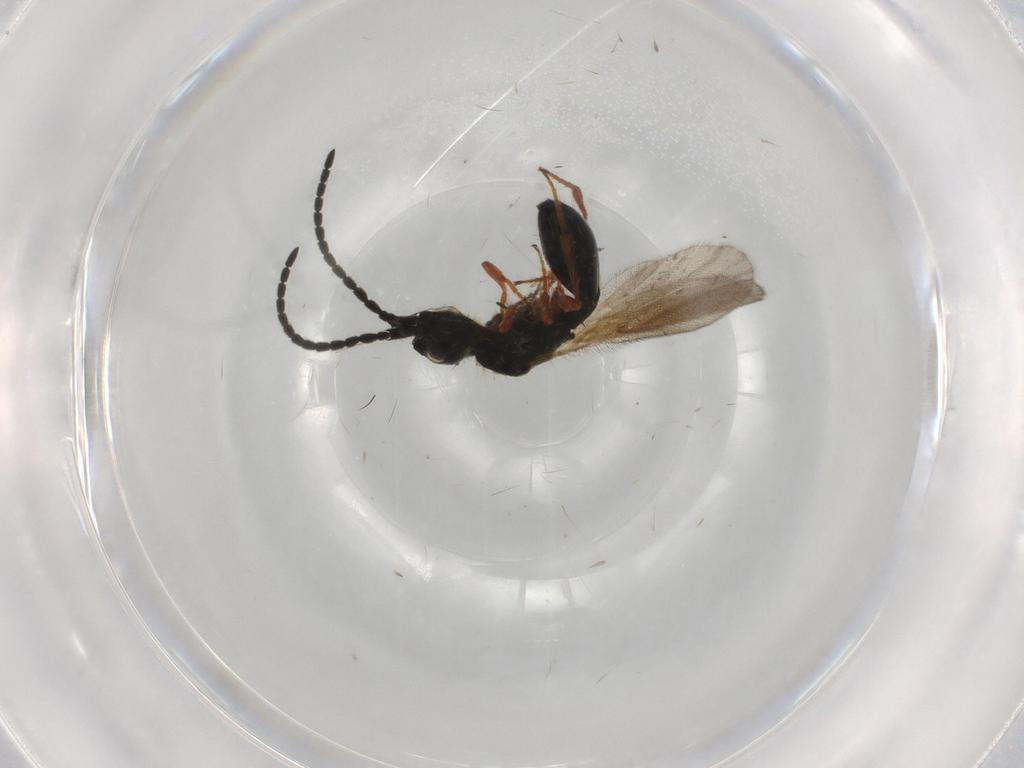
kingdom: Animalia
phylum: Arthropoda
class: Insecta
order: Hymenoptera
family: Diapriidae
